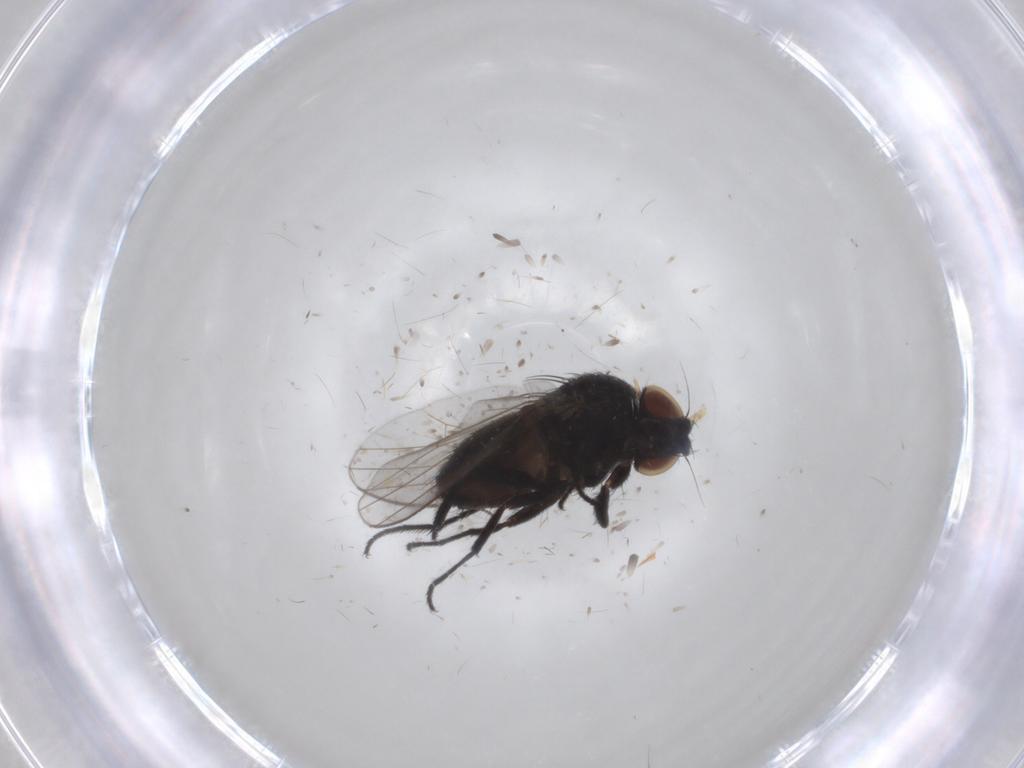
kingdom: Animalia
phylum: Arthropoda
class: Insecta
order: Diptera
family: Milichiidae
